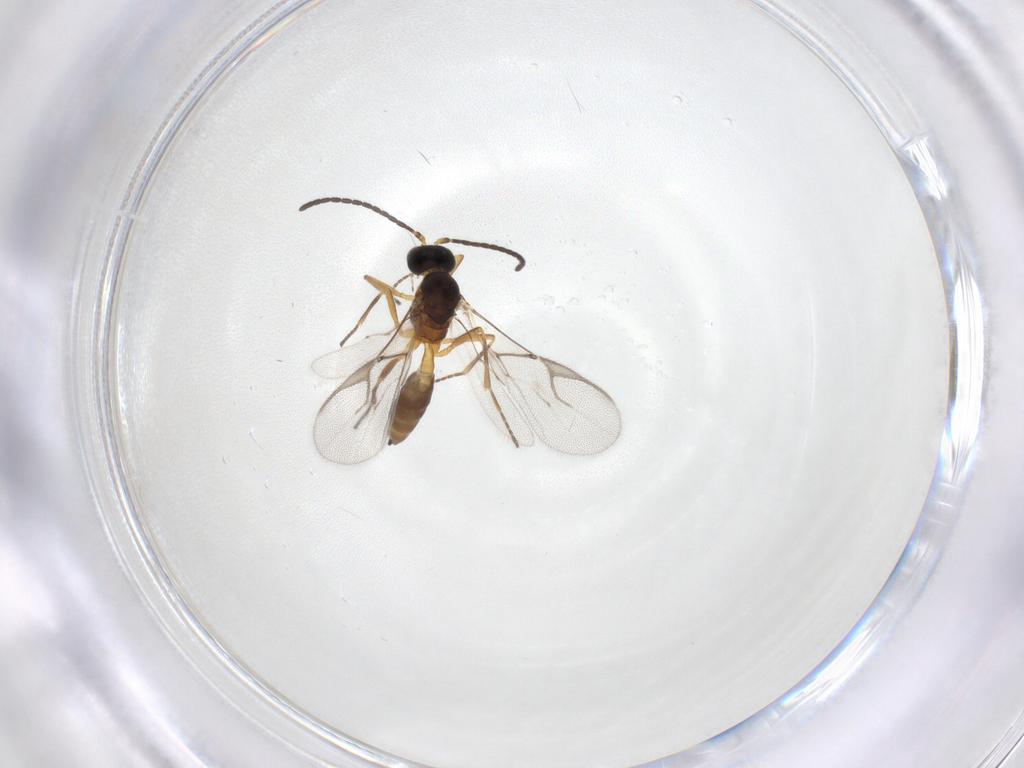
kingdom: Animalia
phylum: Arthropoda
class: Insecta
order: Hymenoptera
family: Braconidae
